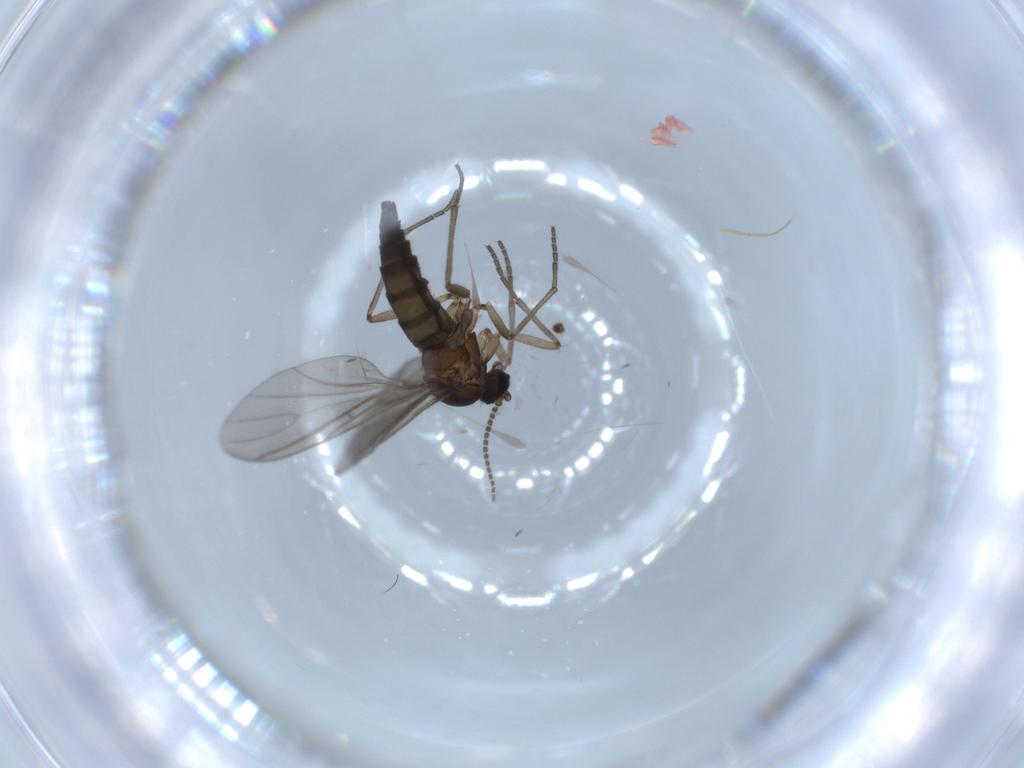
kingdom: Animalia
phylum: Arthropoda
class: Insecta
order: Diptera
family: Sciaridae
